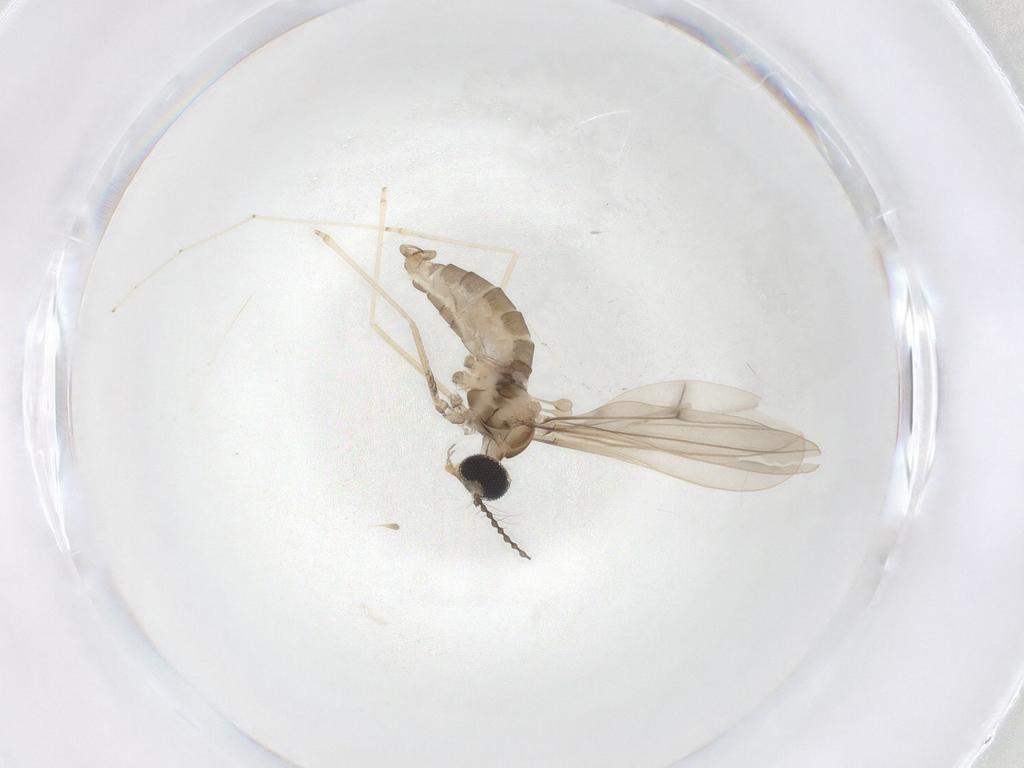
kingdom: Animalia
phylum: Arthropoda
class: Insecta
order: Diptera
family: Cecidomyiidae
